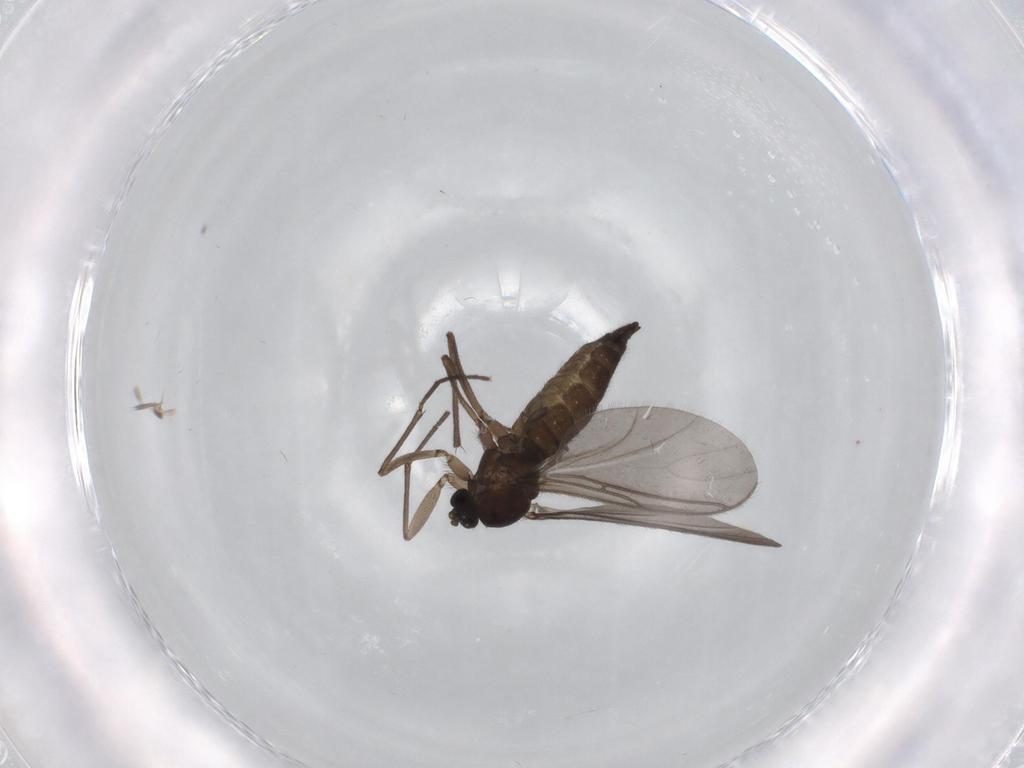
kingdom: Animalia
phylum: Arthropoda
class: Insecta
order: Diptera
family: Sciaridae
